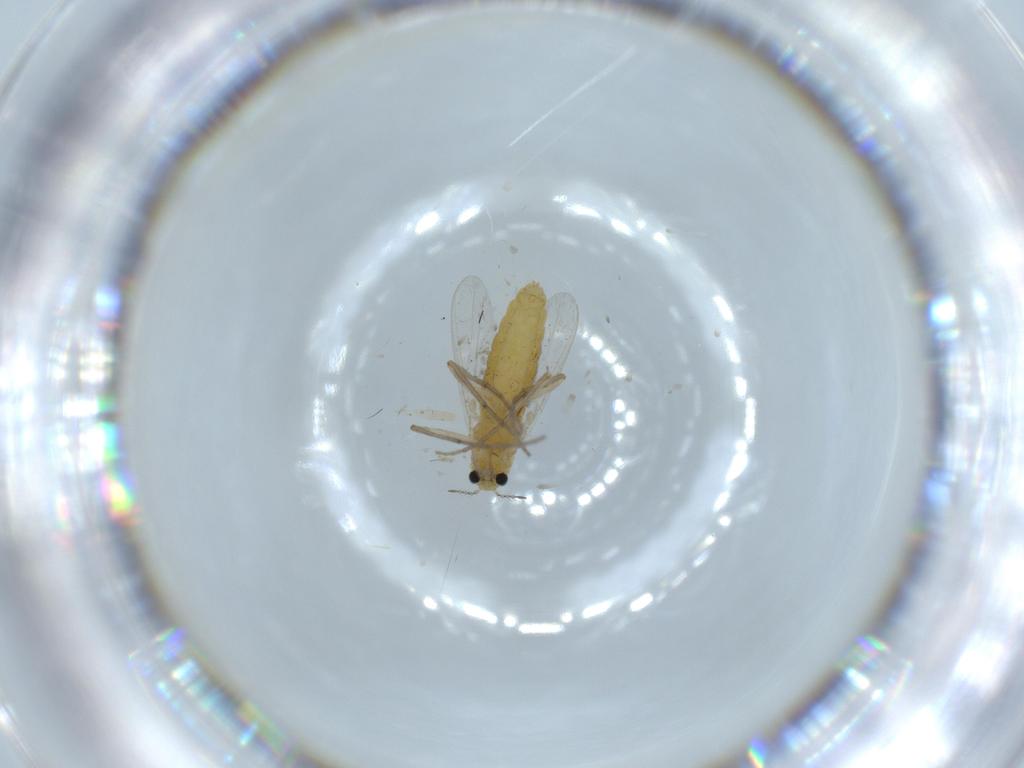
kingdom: Animalia
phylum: Arthropoda
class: Insecta
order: Diptera
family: Chironomidae
